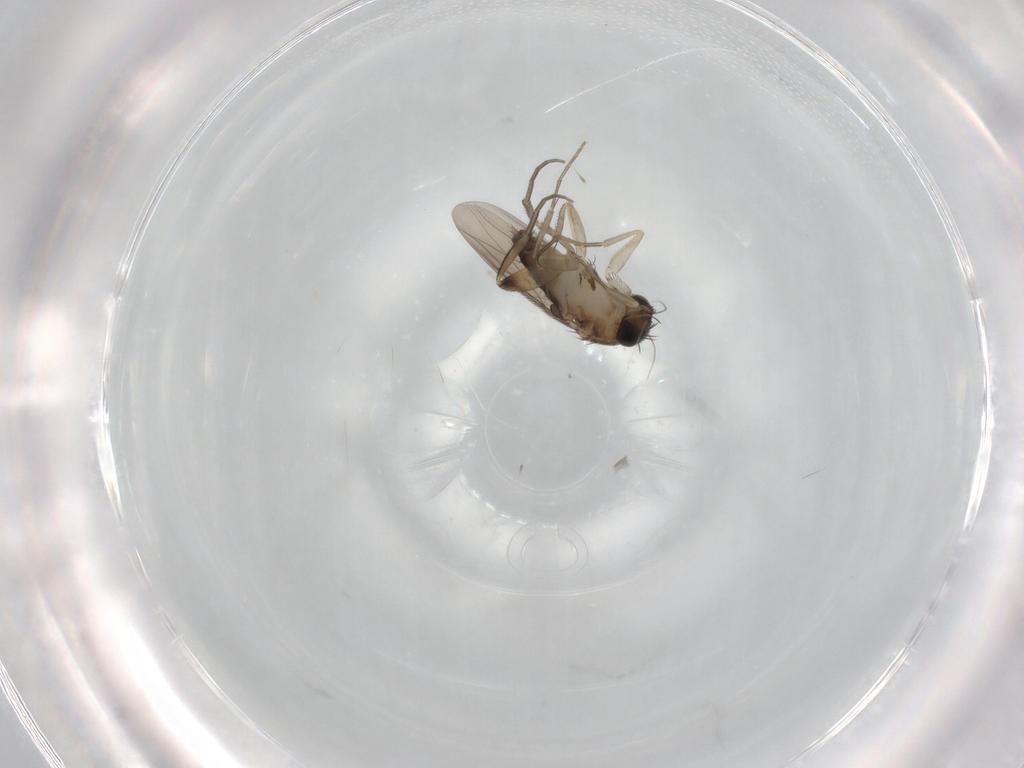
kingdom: Animalia
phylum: Arthropoda
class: Insecta
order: Diptera
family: Phoridae
